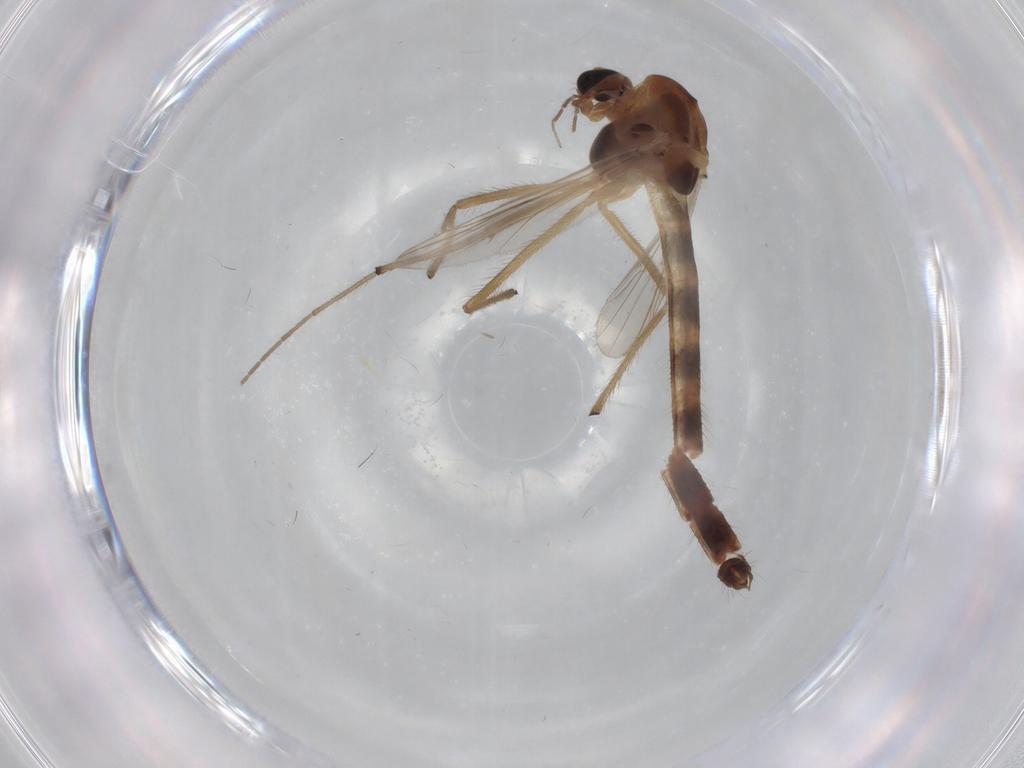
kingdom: Animalia
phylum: Arthropoda
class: Insecta
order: Diptera
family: Chironomidae
